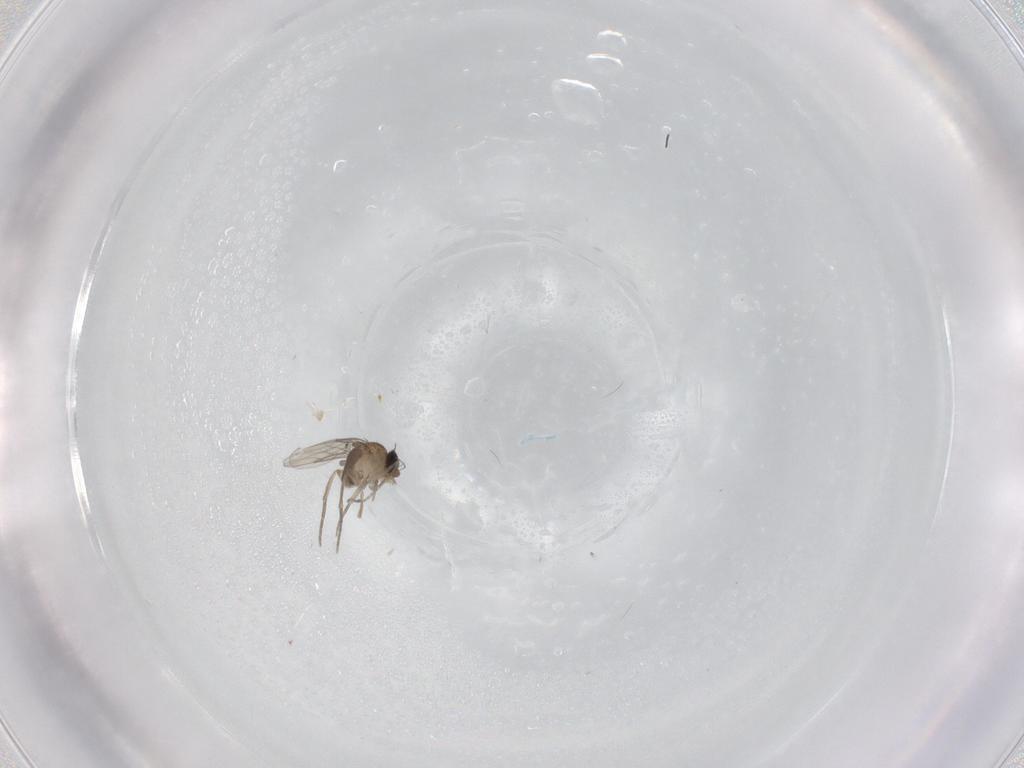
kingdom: Animalia
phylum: Arthropoda
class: Insecta
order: Diptera
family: Phoridae
